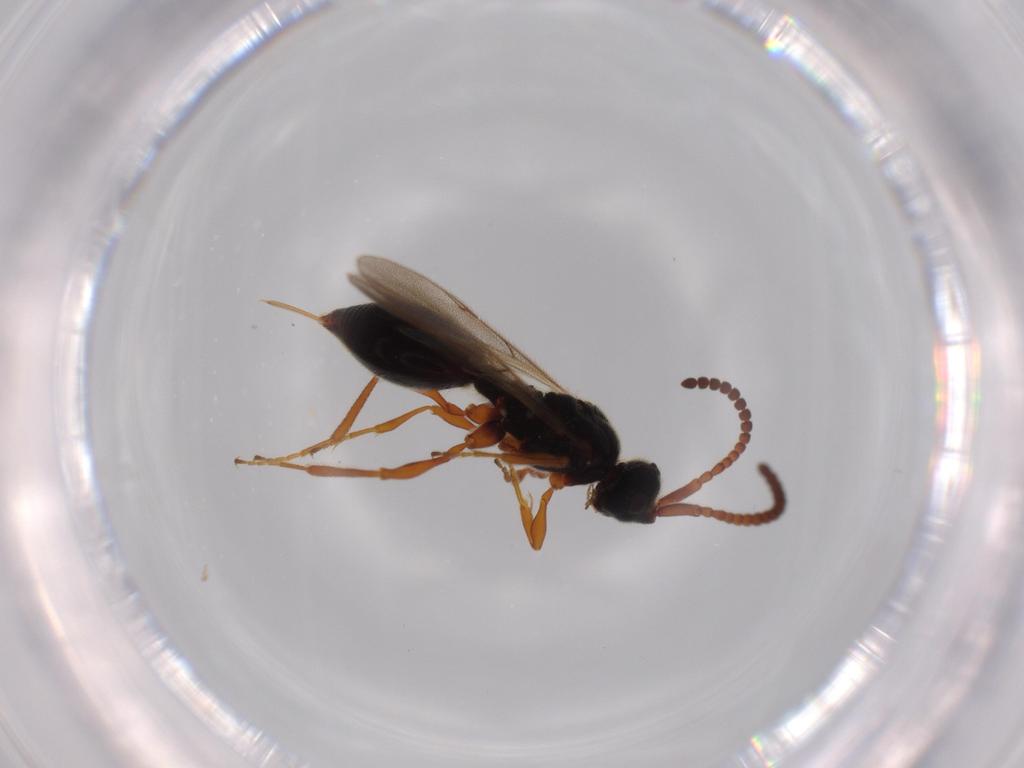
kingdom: Animalia
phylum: Arthropoda
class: Insecta
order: Hymenoptera
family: Diapriidae
